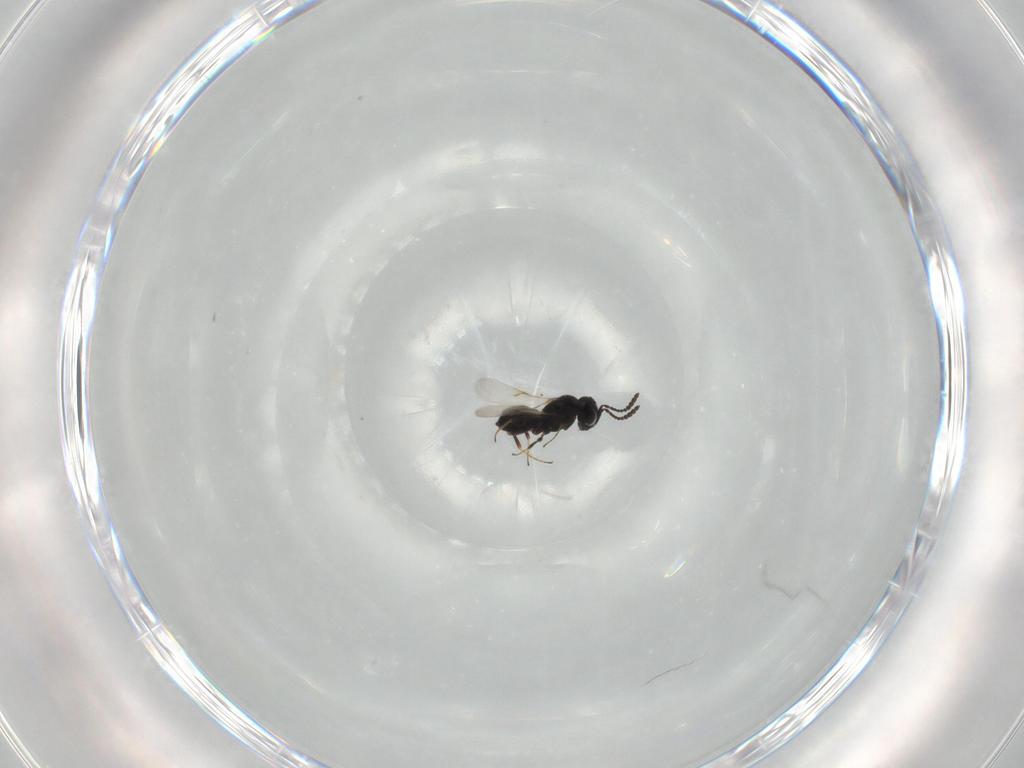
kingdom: Animalia
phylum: Arthropoda
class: Insecta
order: Hymenoptera
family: Scelionidae
